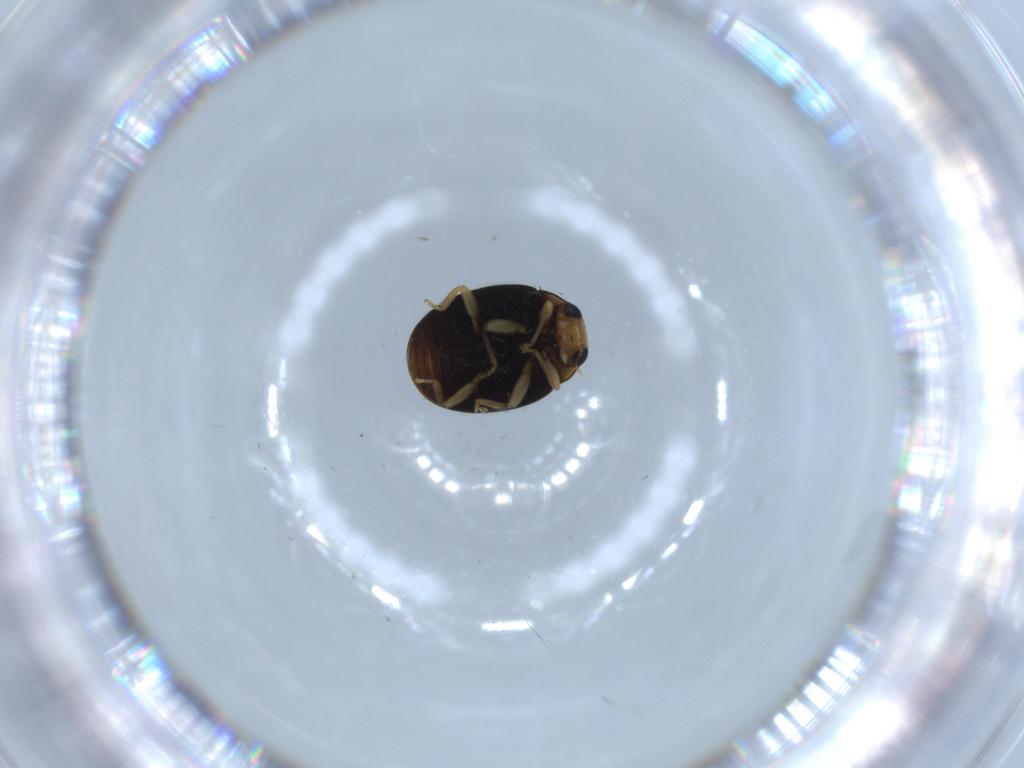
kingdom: Animalia
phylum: Arthropoda
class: Insecta
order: Coleoptera
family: Coccinellidae
